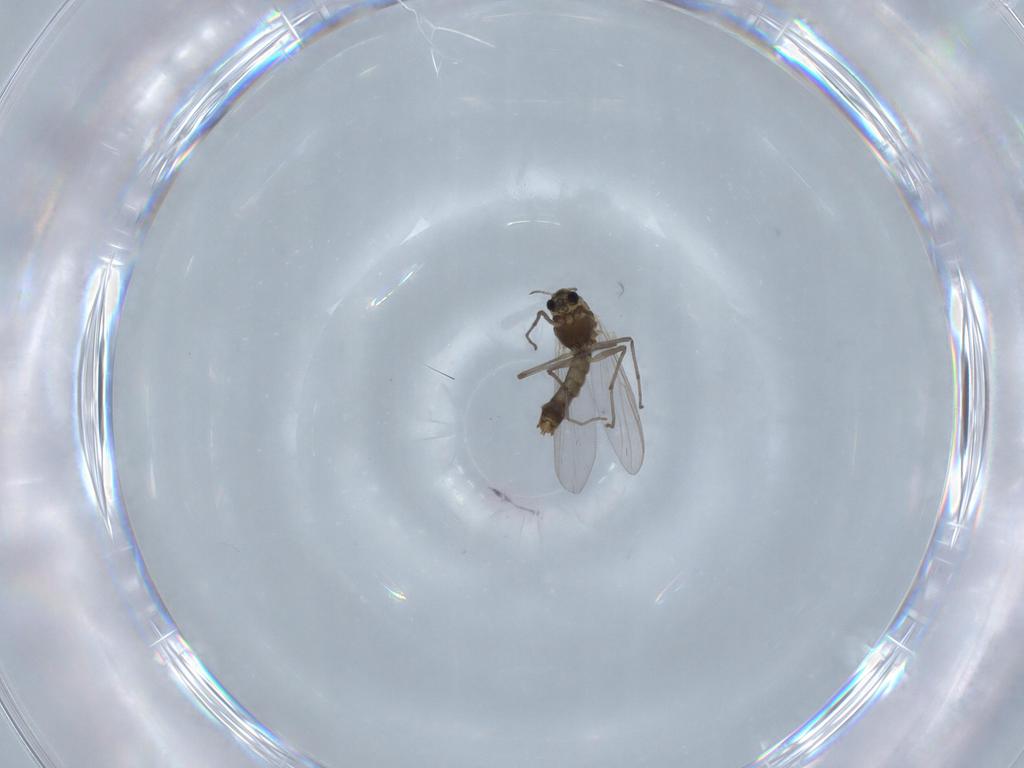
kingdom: Animalia
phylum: Arthropoda
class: Insecta
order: Diptera
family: Chironomidae
